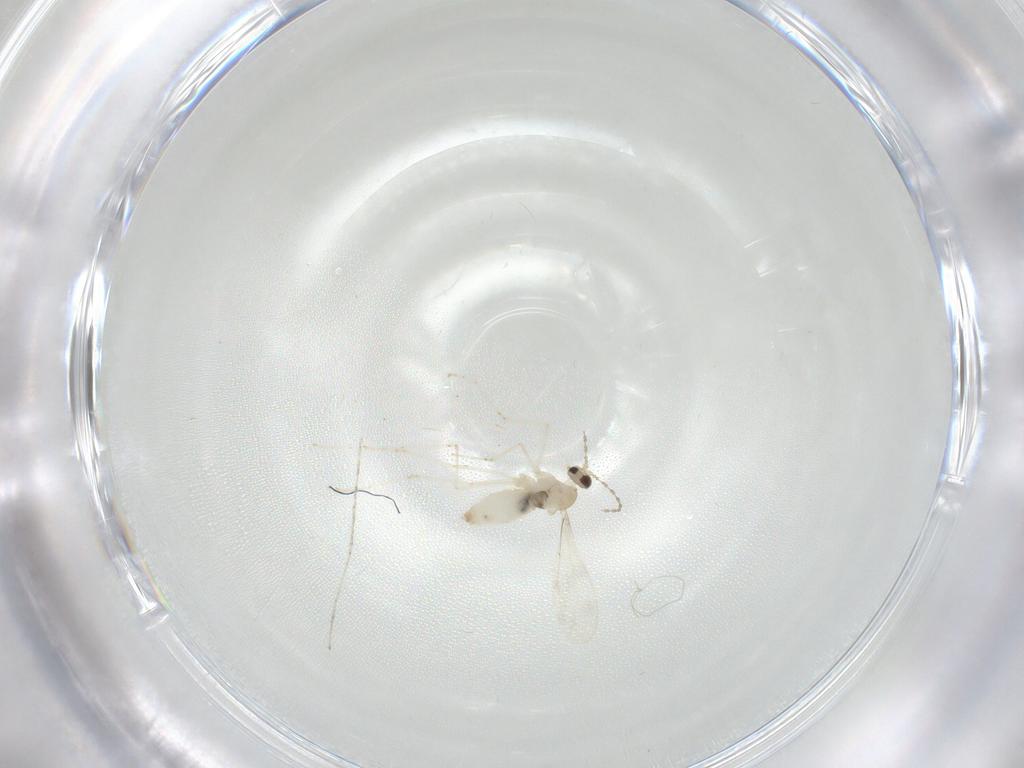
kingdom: Animalia
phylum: Arthropoda
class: Insecta
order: Diptera
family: Cecidomyiidae
